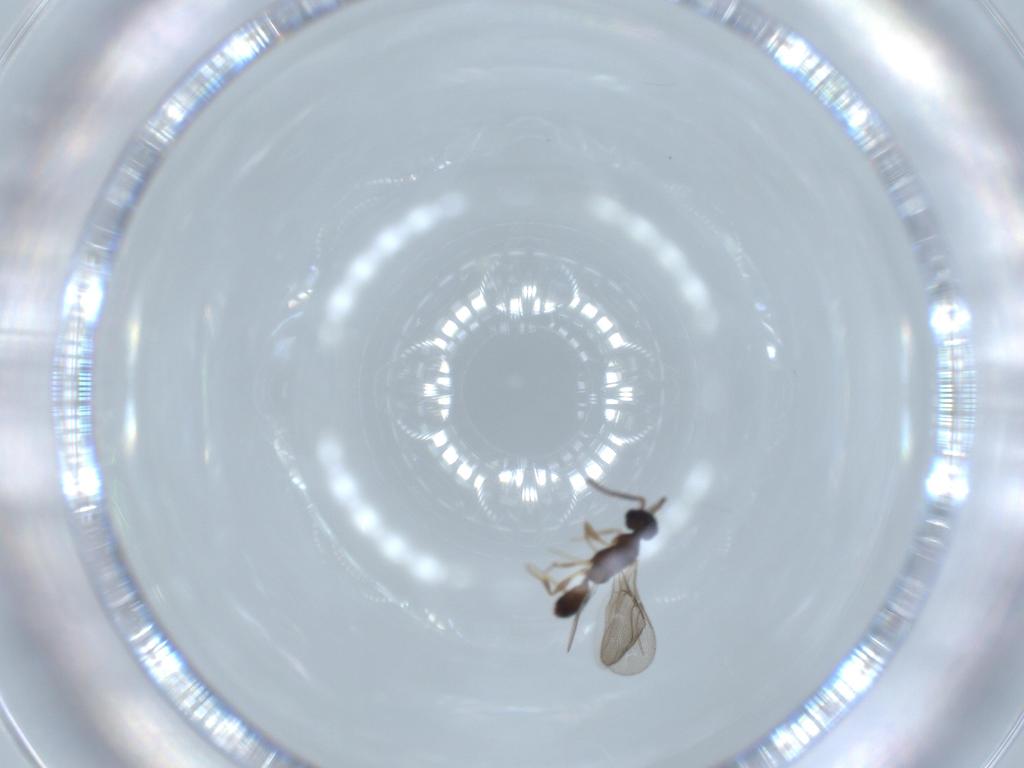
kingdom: Animalia
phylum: Arthropoda
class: Insecta
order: Hymenoptera
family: Bethylidae
